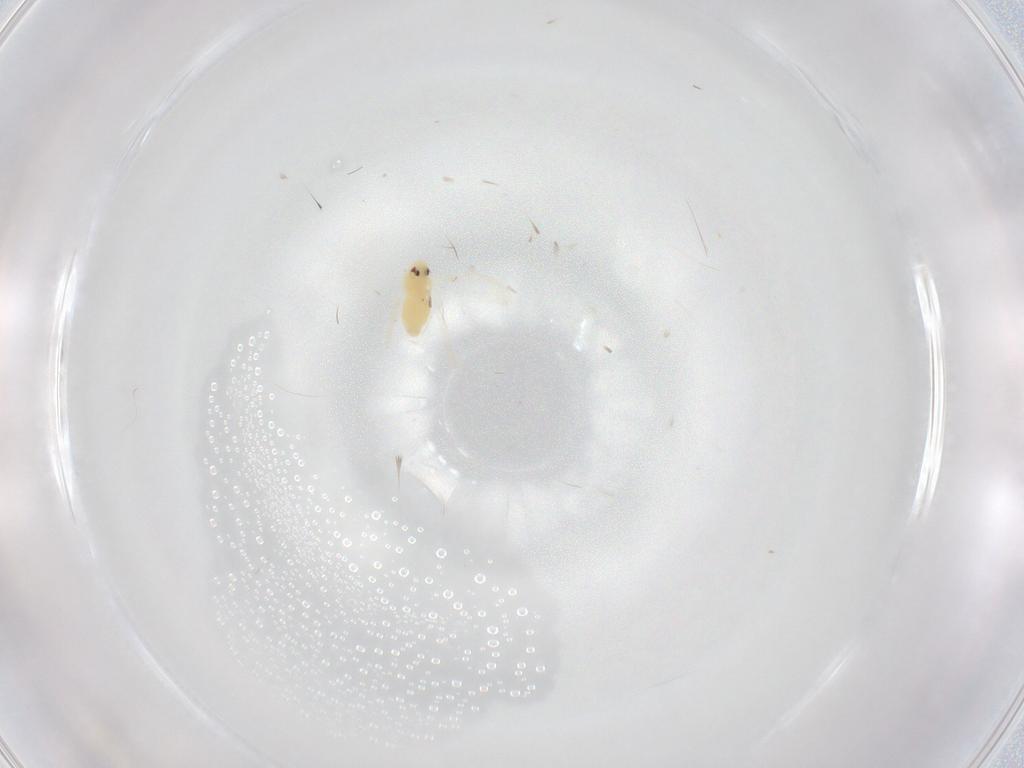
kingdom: Animalia
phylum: Arthropoda
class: Insecta
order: Hemiptera
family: Aleyrodidae
